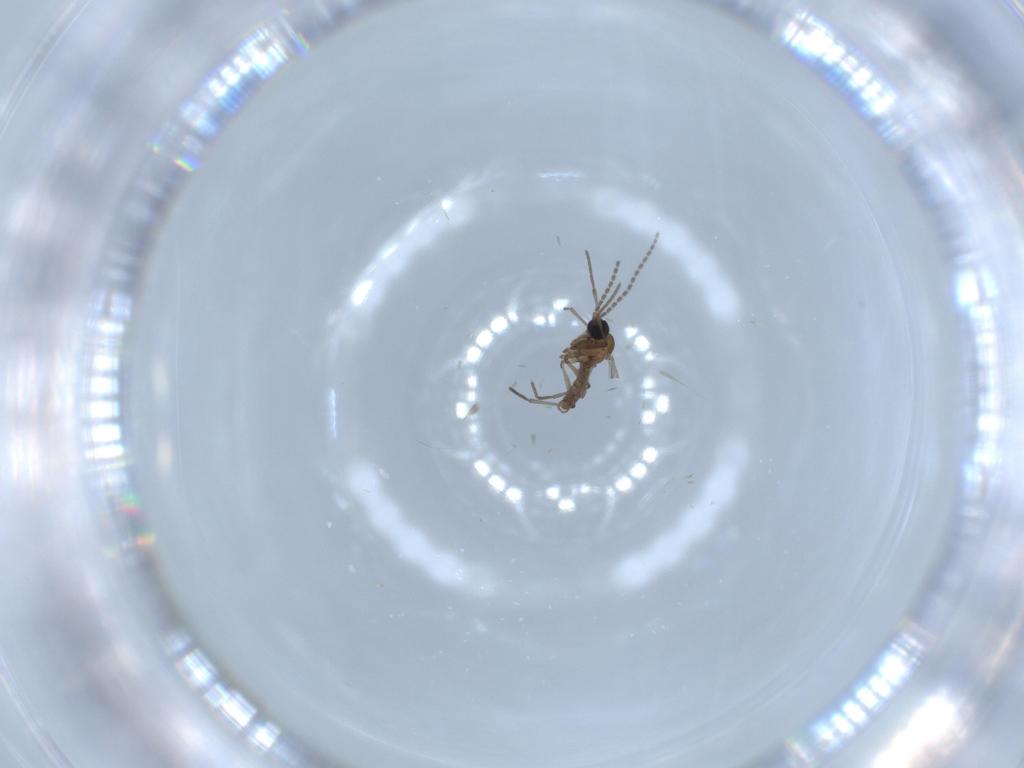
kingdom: Animalia
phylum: Arthropoda
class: Insecta
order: Diptera
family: Sciaridae
